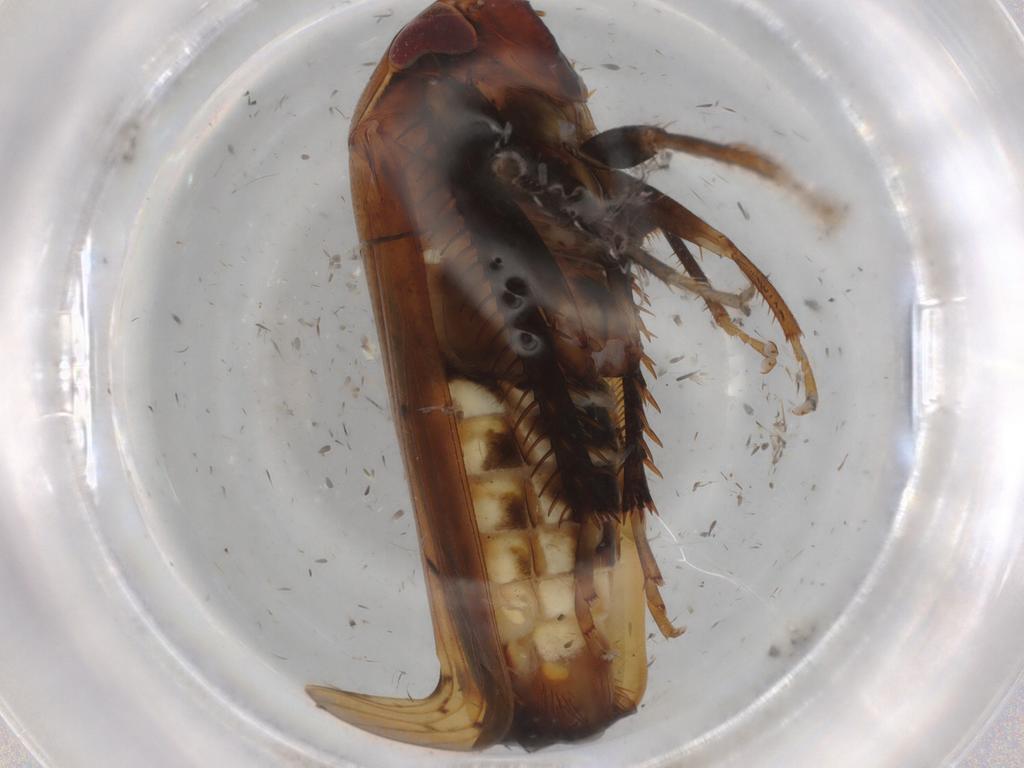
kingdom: Animalia
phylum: Arthropoda
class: Insecta
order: Hemiptera
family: Cicadellidae
